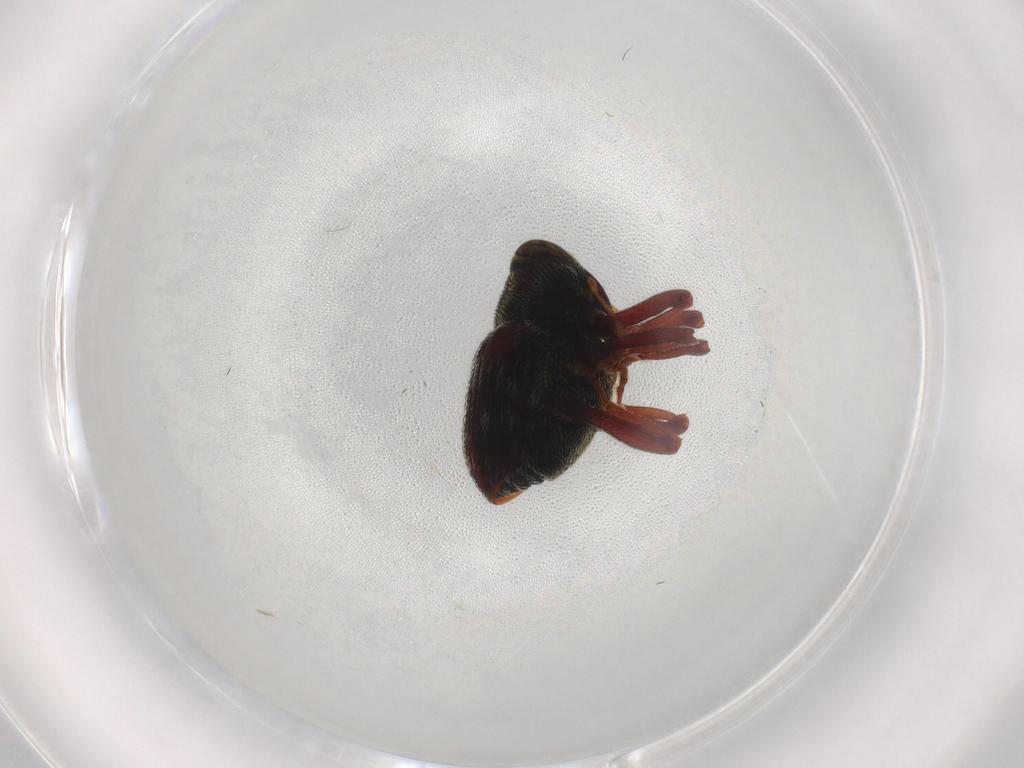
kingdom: Animalia
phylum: Arthropoda
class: Insecta
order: Coleoptera
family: Curculionidae
